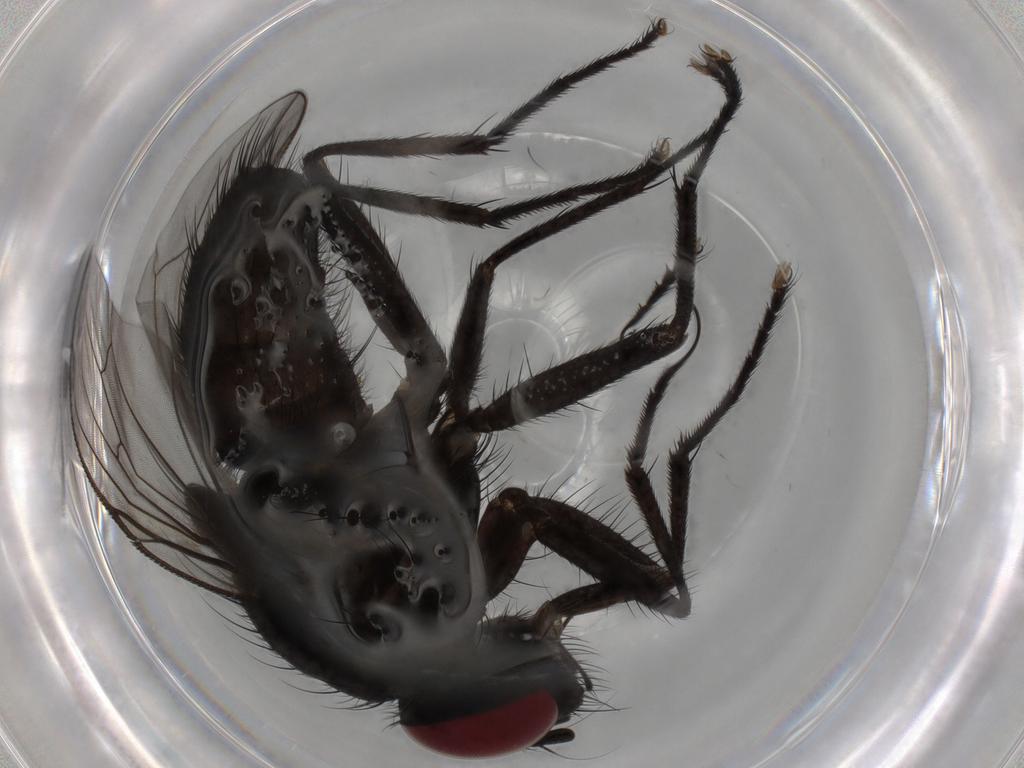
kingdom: Animalia
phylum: Arthropoda
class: Insecta
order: Diptera
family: Muscidae
